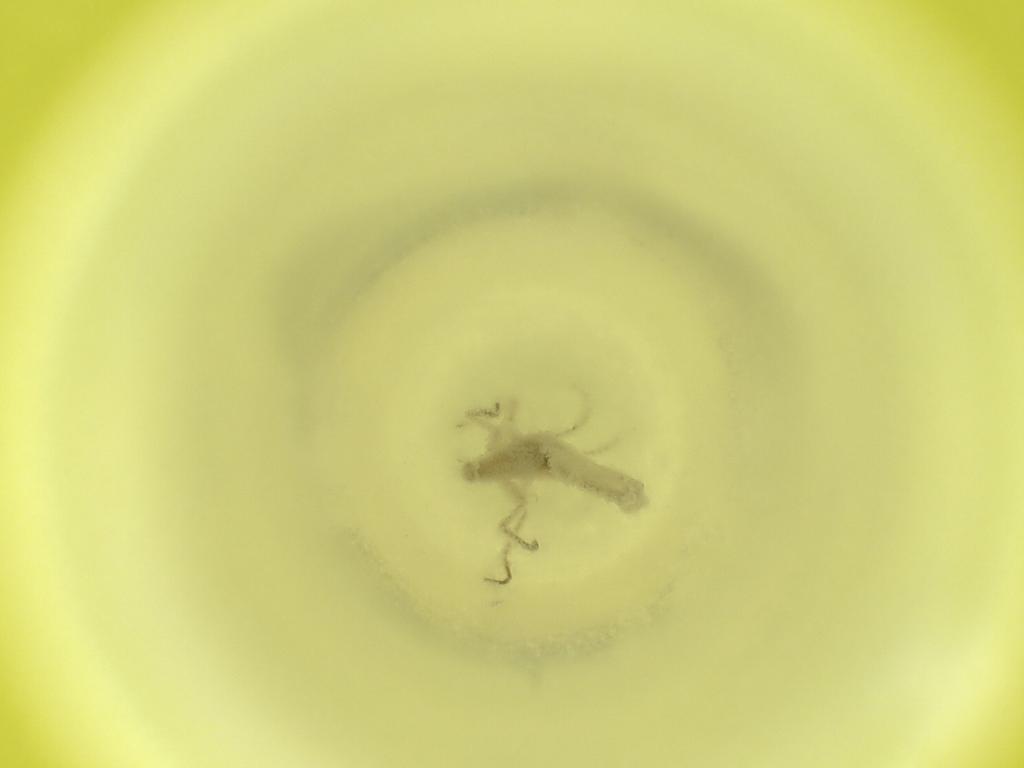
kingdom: Animalia
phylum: Arthropoda
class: Insecta
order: Diptera
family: Cecidomyiidae
